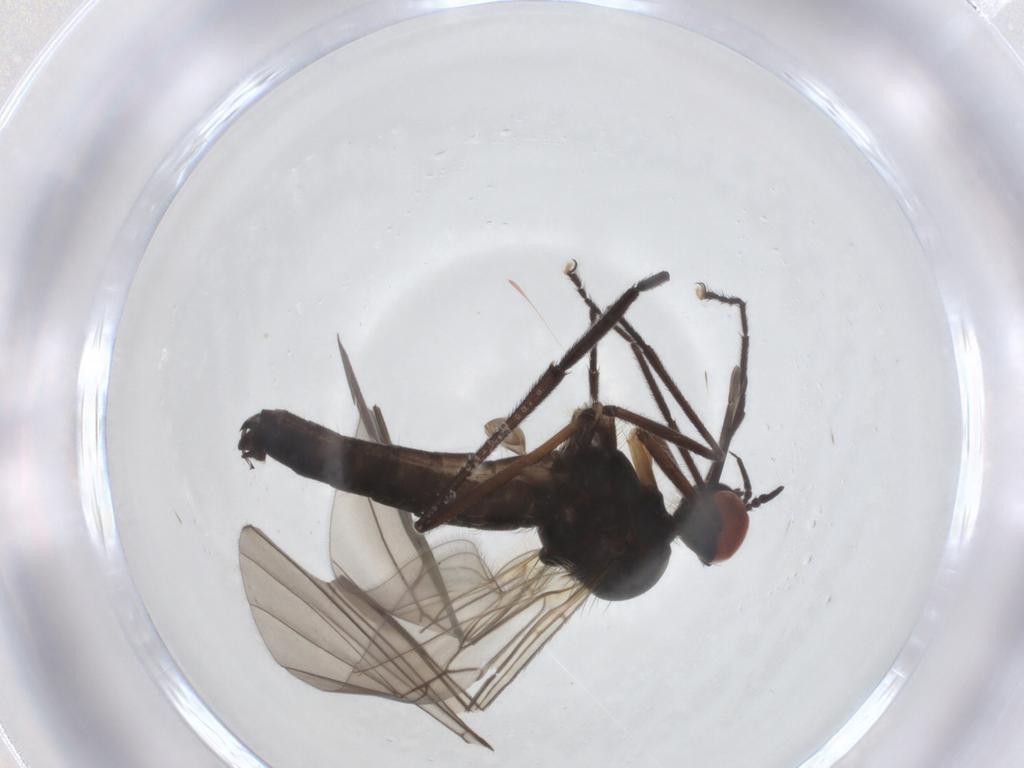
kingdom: Animalia
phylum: Arthropoda
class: Insecta
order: Diptera
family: Empididae
